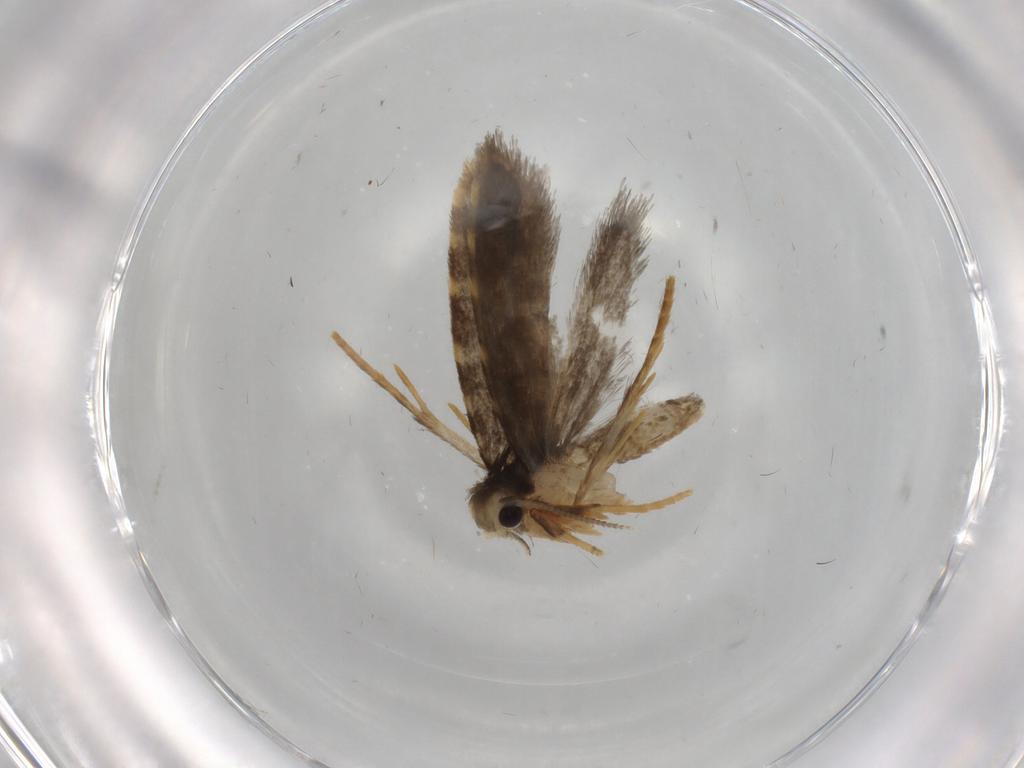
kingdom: Animalia
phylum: Arthropoda
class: Insecta
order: Lepidoptera
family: Psychidae
